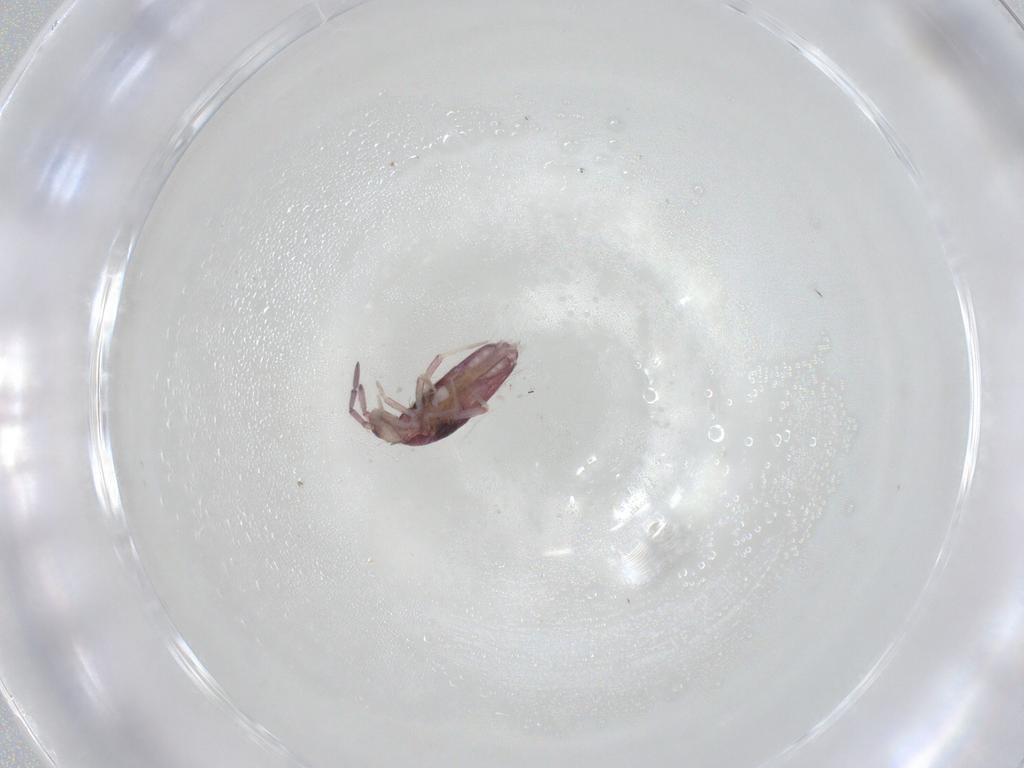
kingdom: Animalia
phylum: Arthropoda
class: Collembola
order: Entomobryomorpha
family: Entomobryidae
